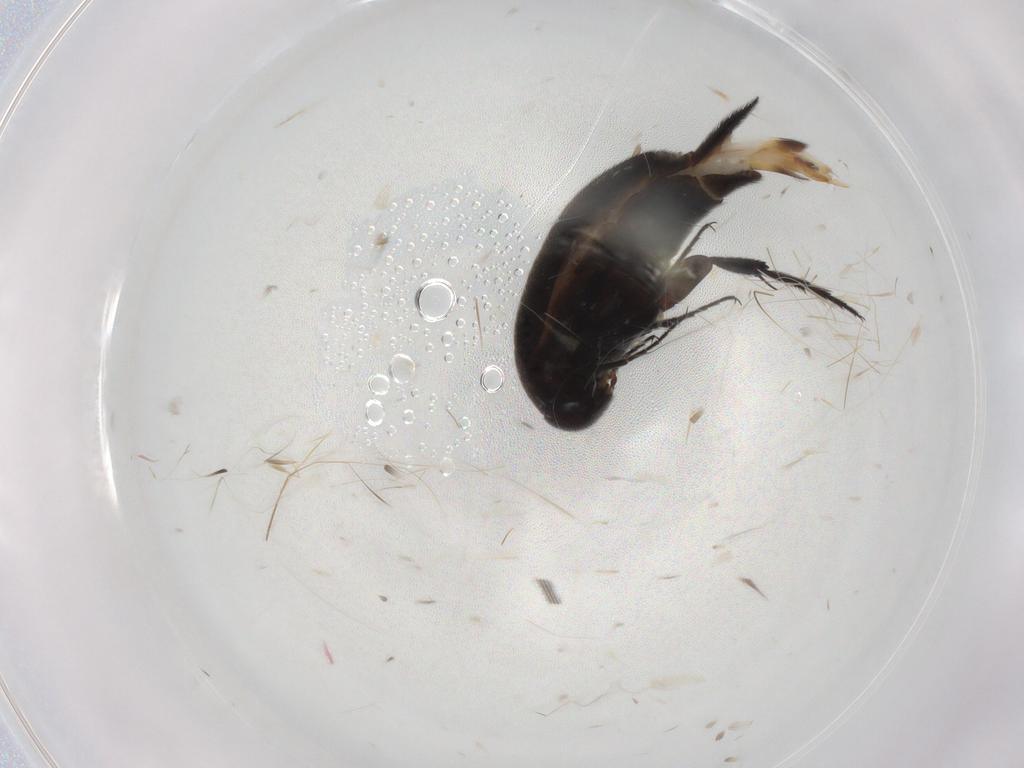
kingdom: Animalia
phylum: Arthropoda
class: Insecta
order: Coleoptera
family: Mordellidae
